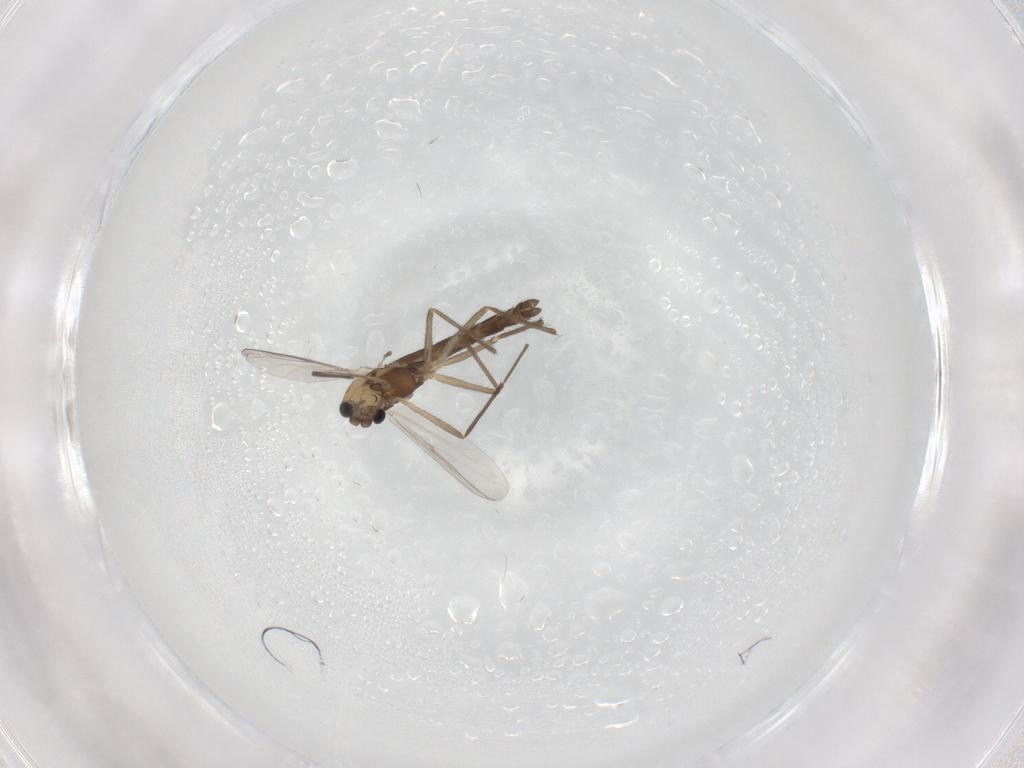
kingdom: Animalia
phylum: Arthropoda
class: Insecta
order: Diptera
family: Chironomidae
